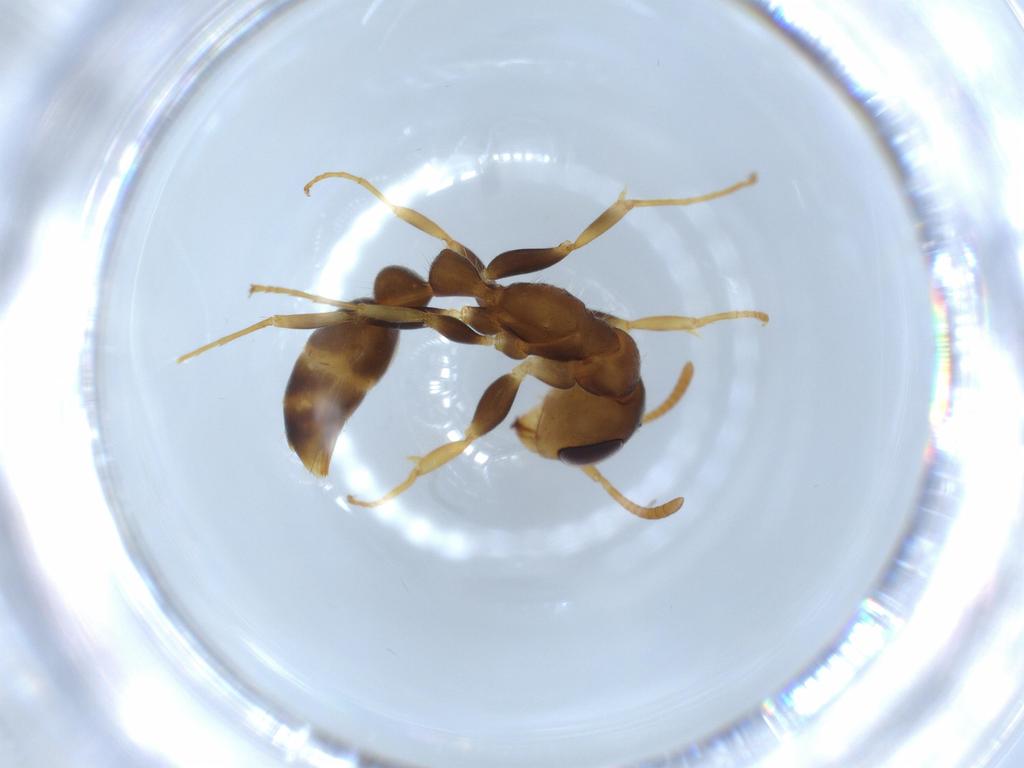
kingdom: Animalia
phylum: Arthropoda
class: Insecta
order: Hymenoptera
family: Formicidae
